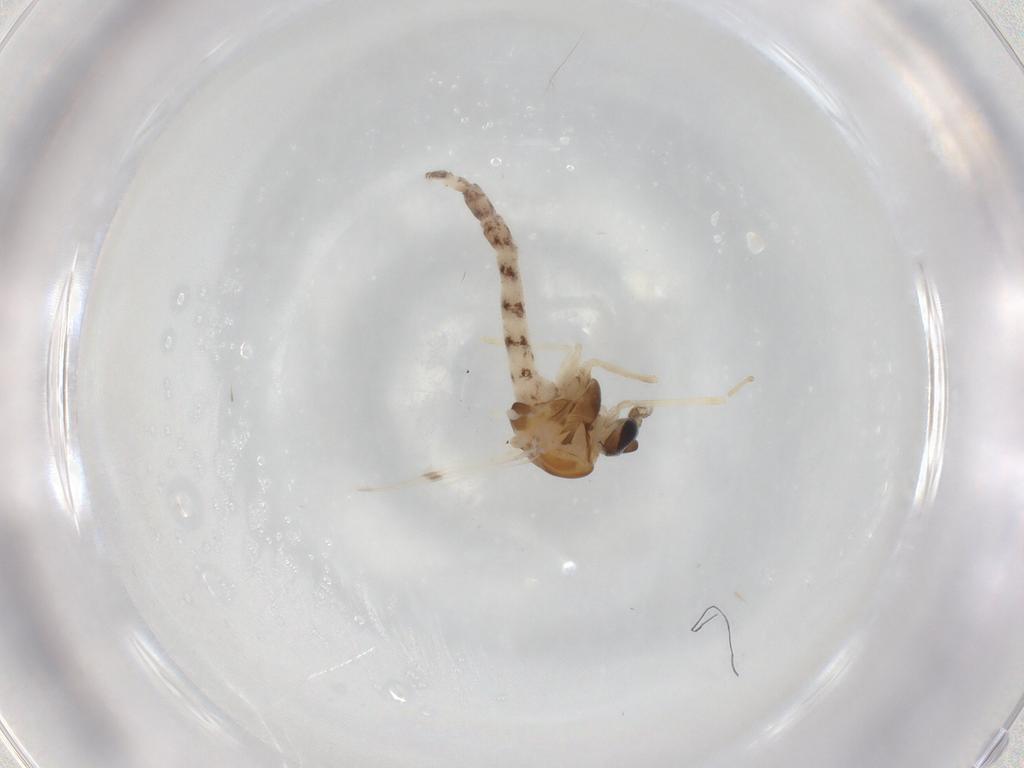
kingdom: Animalia
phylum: Arthropoda
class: Insecta
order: Diptera
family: Chironomidae
